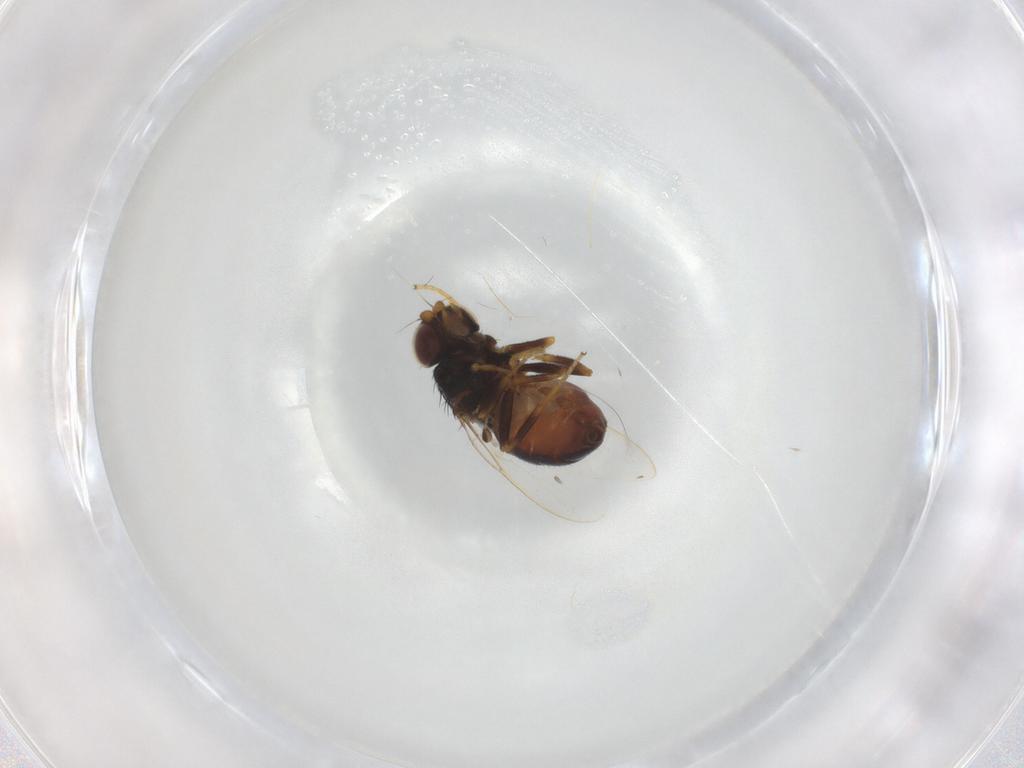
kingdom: Animalia
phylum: Arthropoda
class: Insecta
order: Diptera
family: Chloropidae
